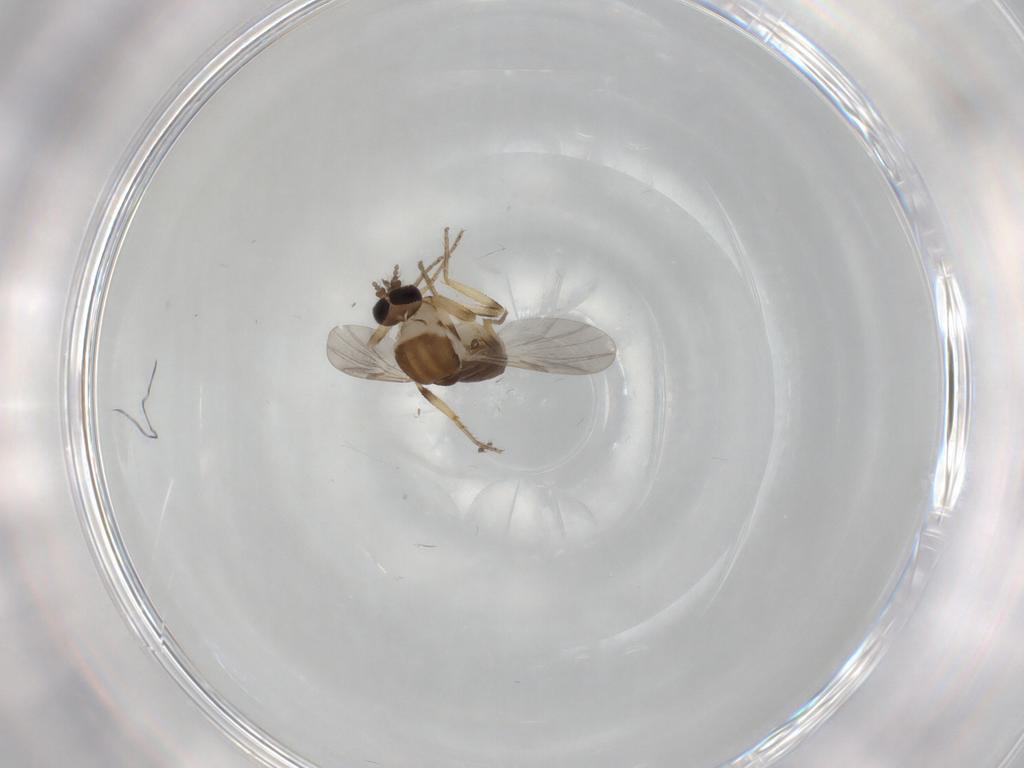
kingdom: Animalia
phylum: Arthropoda
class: Insecta
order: Diptera
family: Ceratopogonidae
